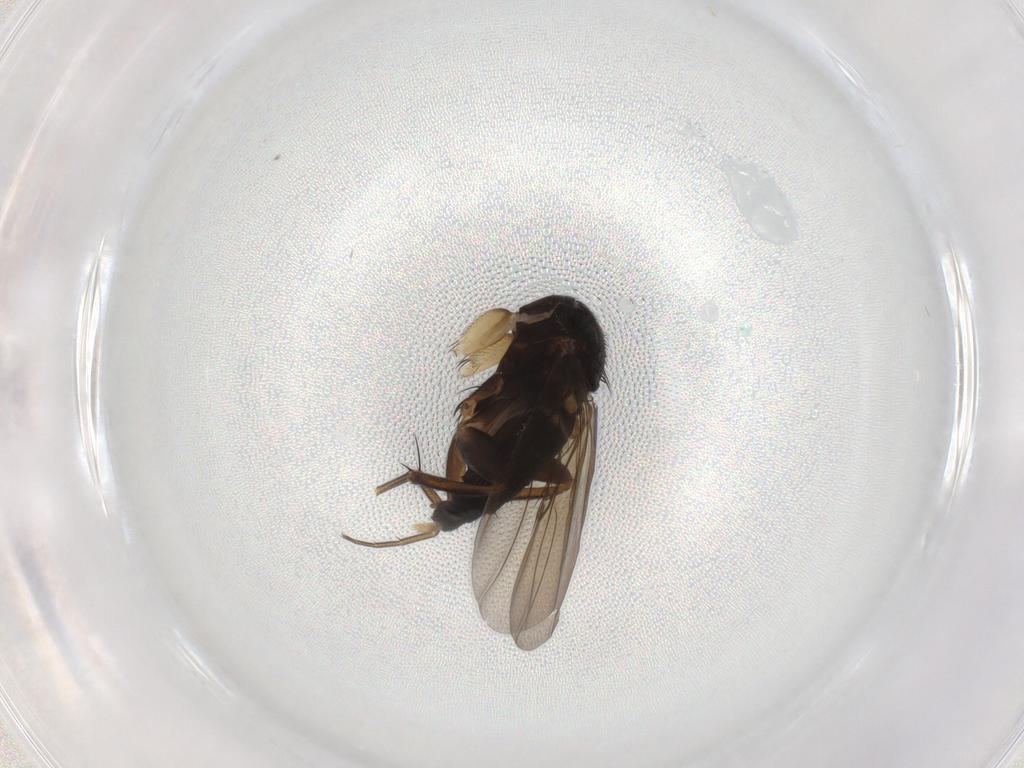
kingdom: Animalia
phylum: Arthropoda
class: Insecta
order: Diptera
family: Phoridae
